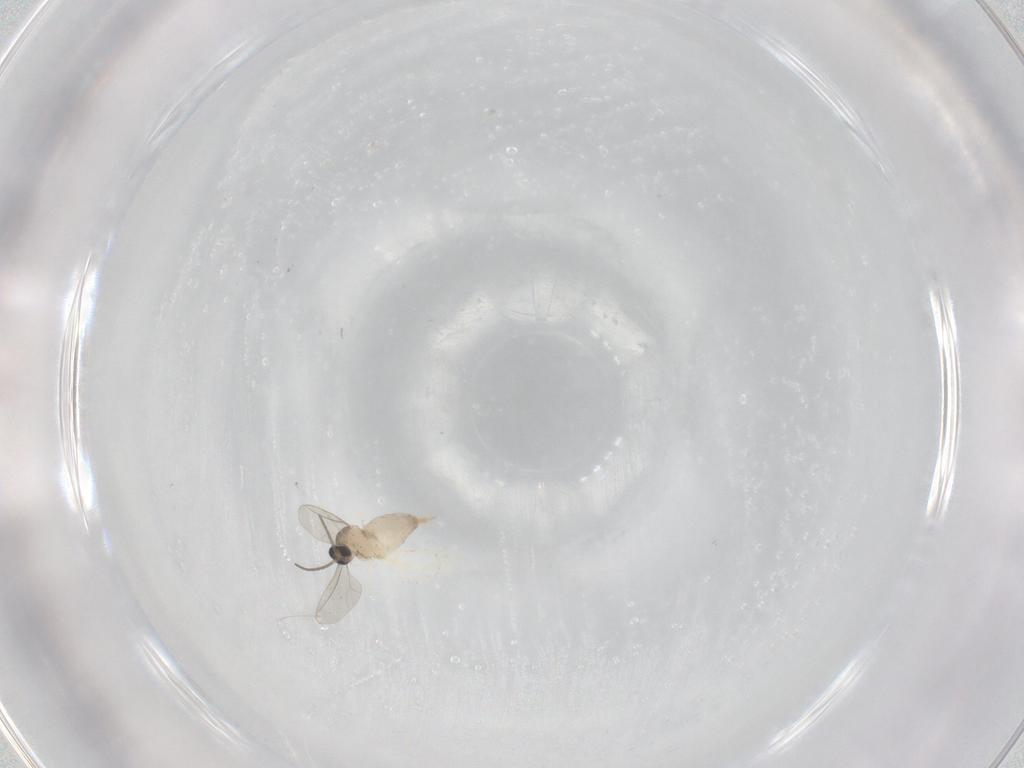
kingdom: Animalia
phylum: Arthropoda
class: Insecta
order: Diptera
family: Cecidomyiidae
